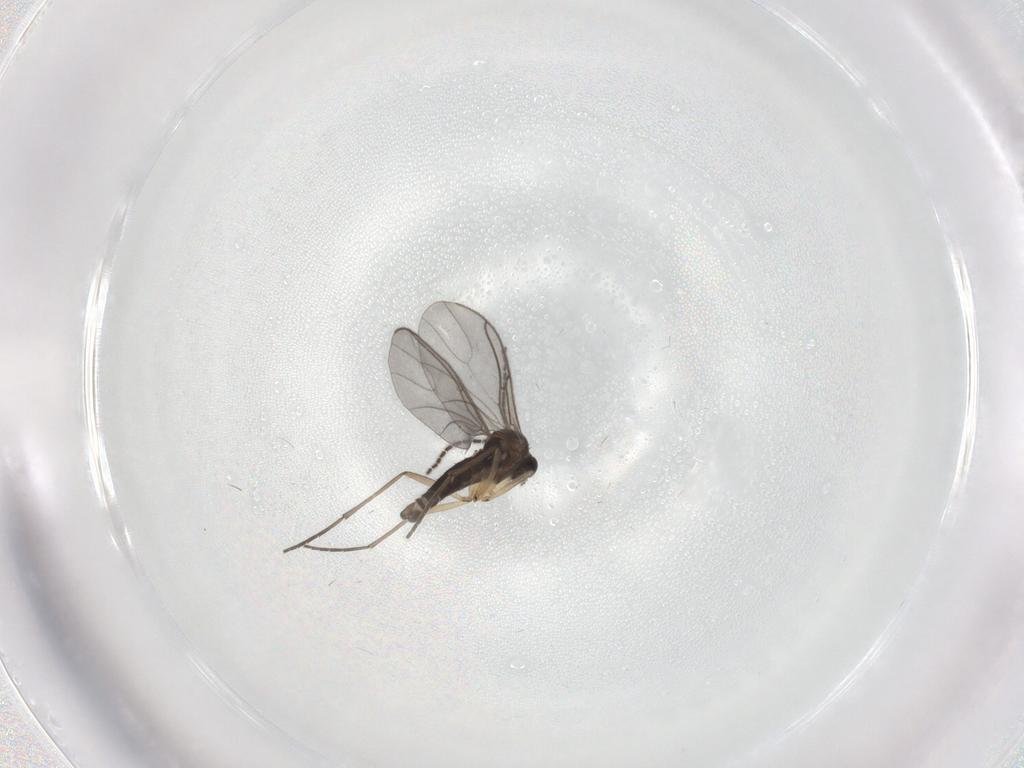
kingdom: Animalia
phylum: Arthropoda
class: Insecta
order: Diptera
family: Sciaridae
